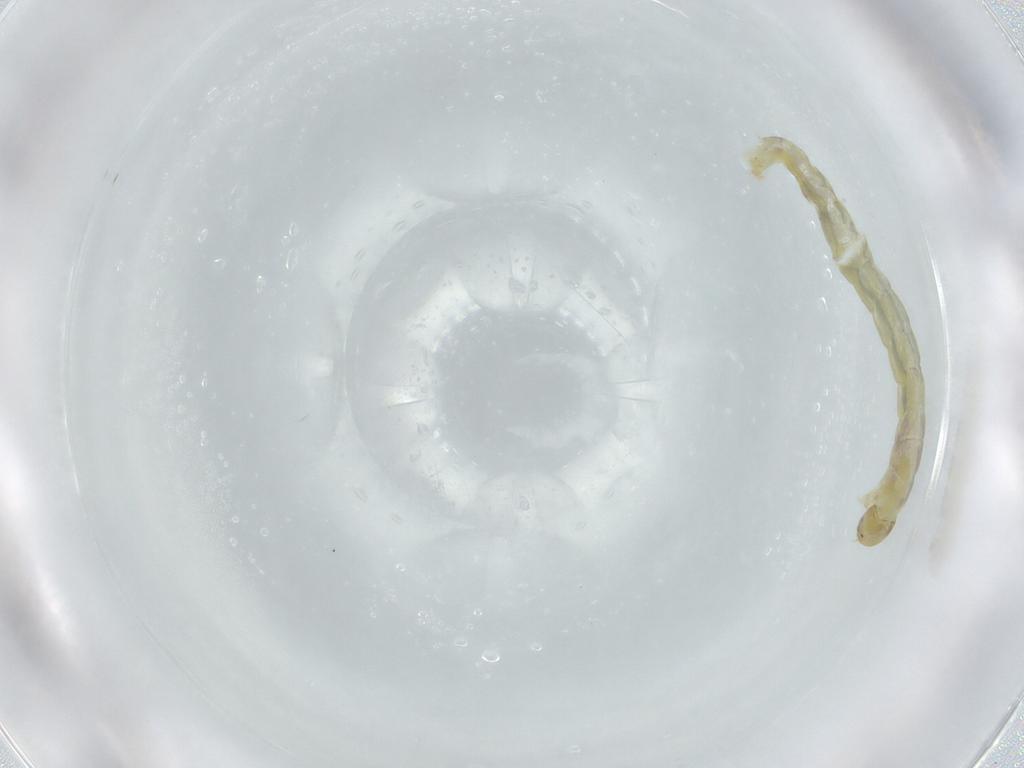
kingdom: Animalia
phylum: Arthropoda
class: Insecta
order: Diptera
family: Chironomidae
